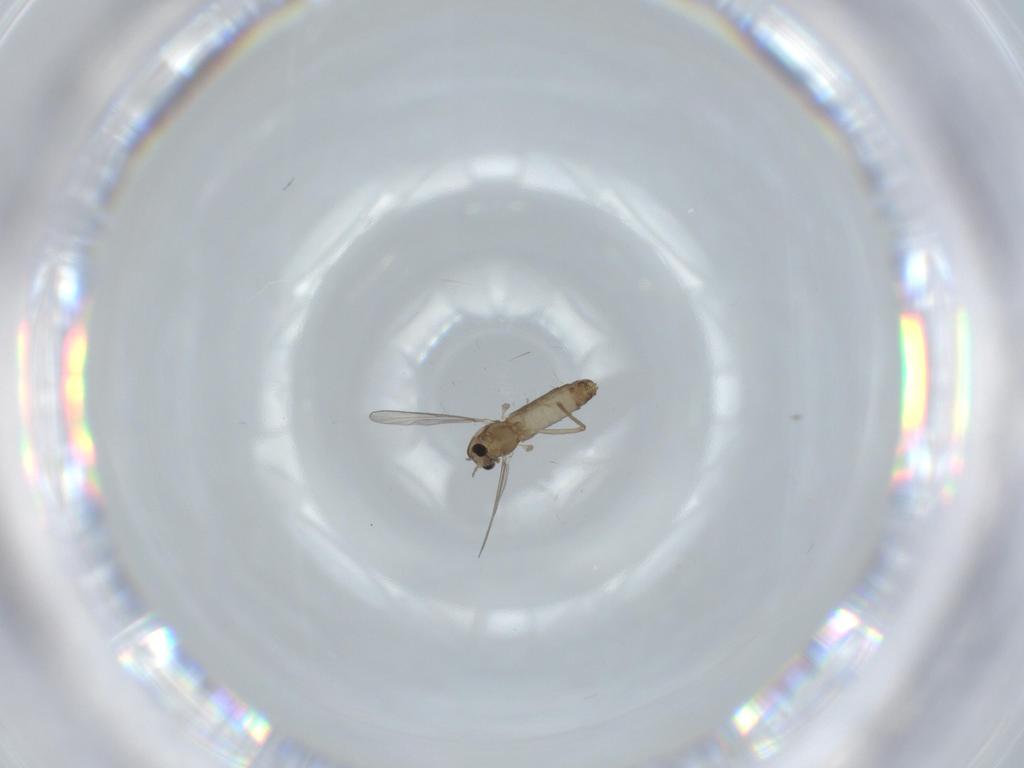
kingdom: Animalia
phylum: Arthropoda
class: Insecta
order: Diptera
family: Chironomidae
